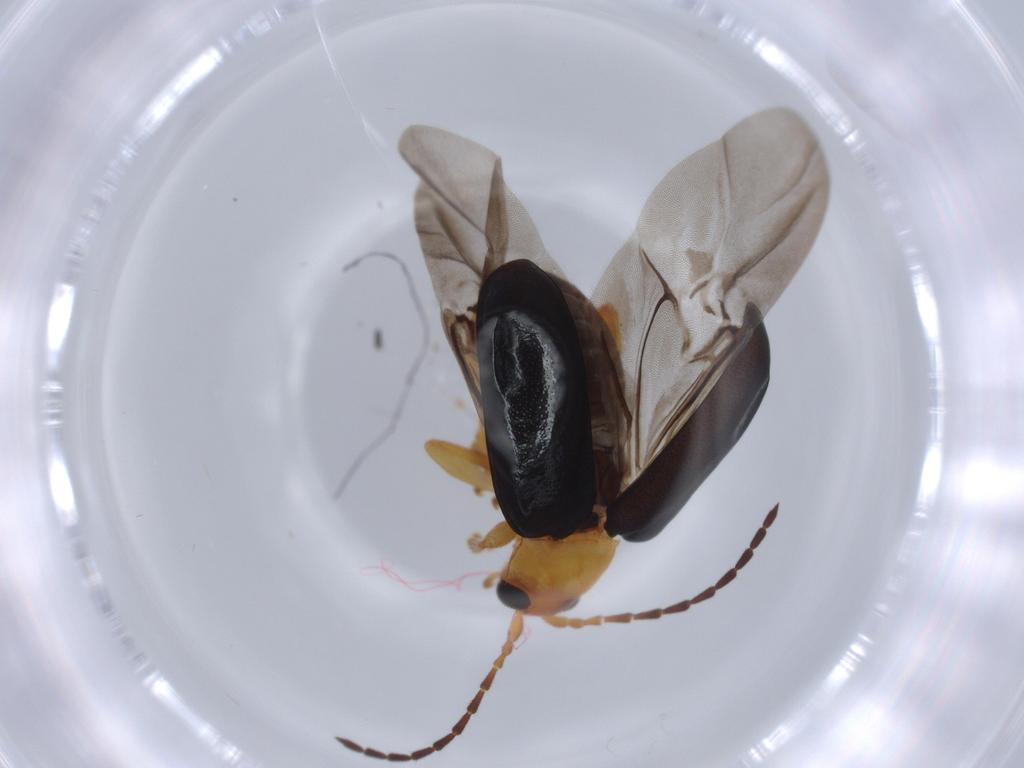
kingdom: Animalia
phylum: Arthropoda
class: Insecta
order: Coleoptera
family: Chrysomelidae
